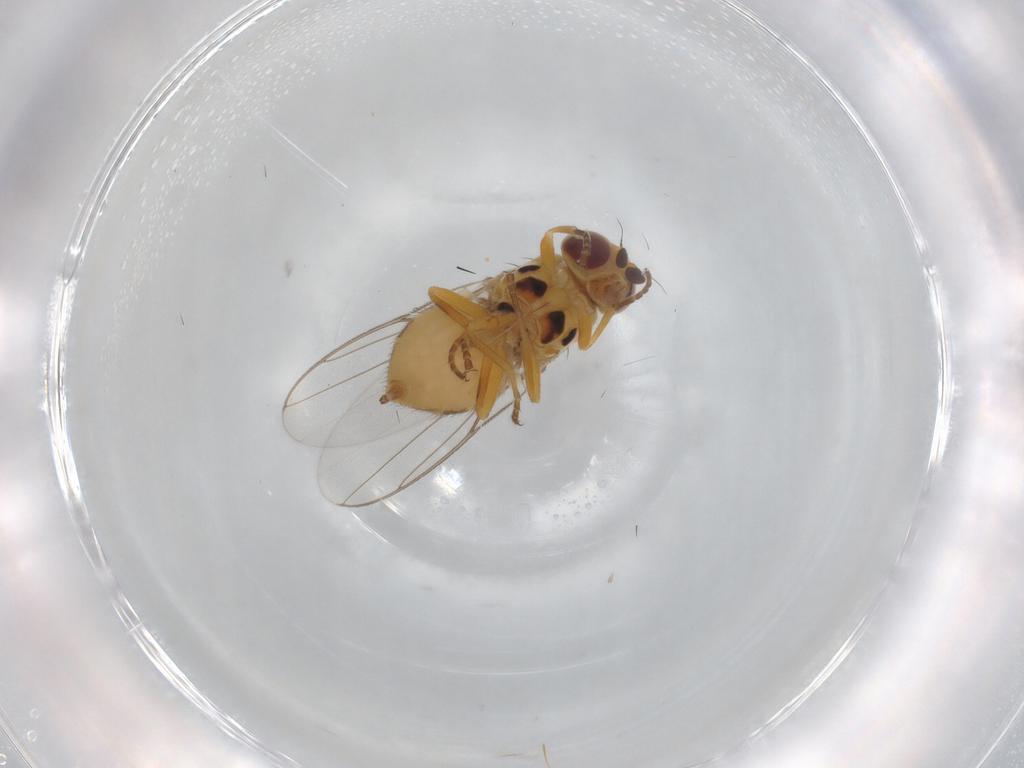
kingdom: Animalia
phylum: Arthropoda
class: Insecta
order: Diptera
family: Chloropidae
